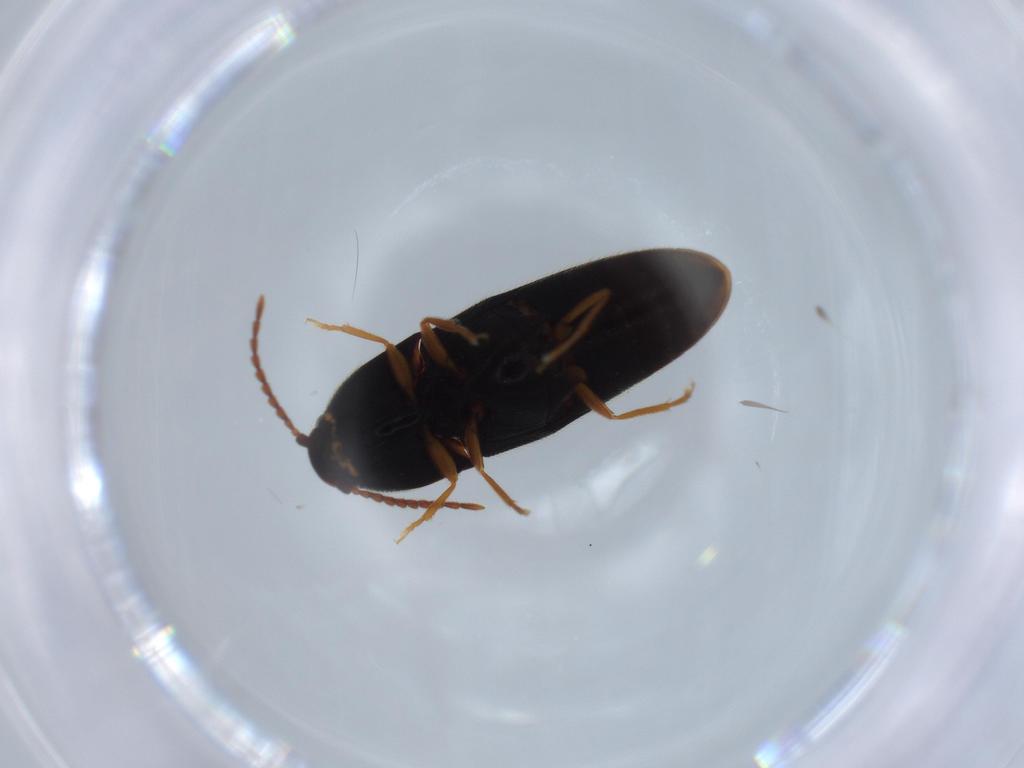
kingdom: Animalia
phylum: Arthropoda
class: Insecta
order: Coleoptera
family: Elateridae
